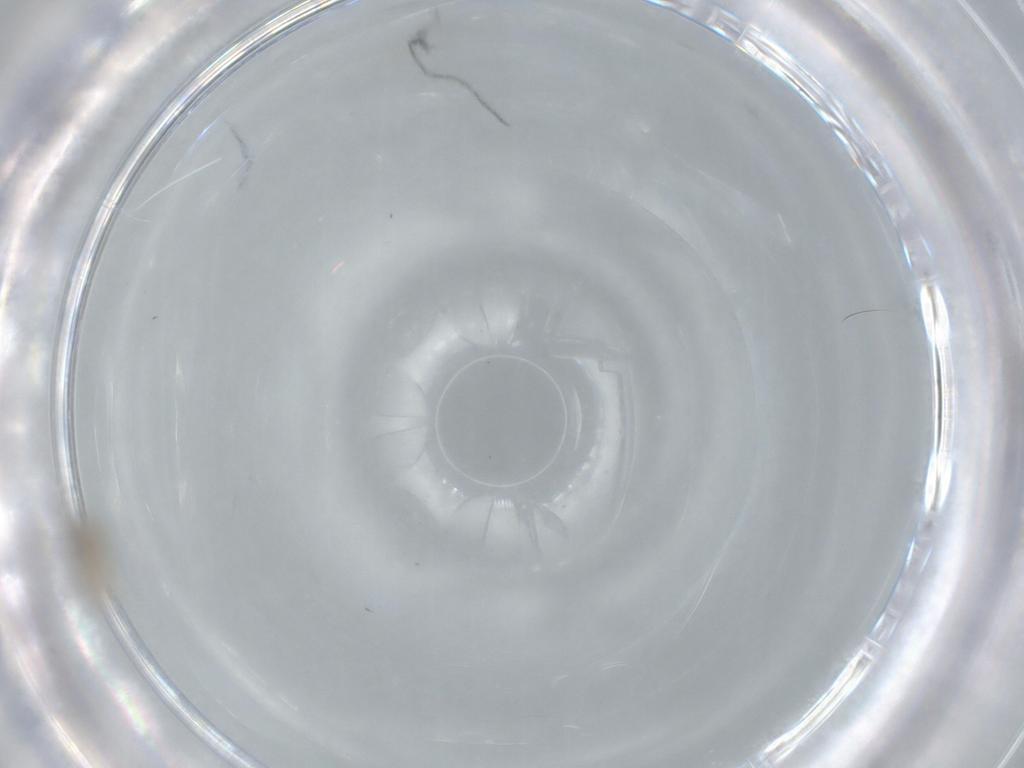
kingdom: Animalia
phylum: Arthropoda
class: Insecta
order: Diptera
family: Cecidomyiidae
